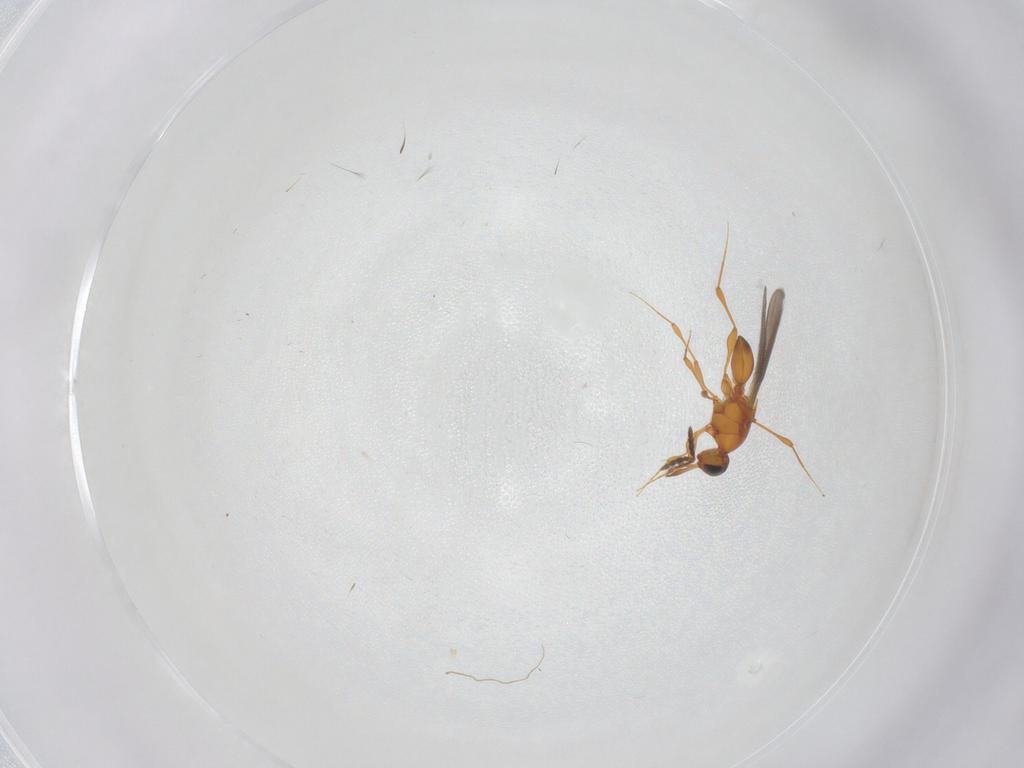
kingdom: Animalia
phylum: Arthropoda
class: Insecta
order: Hymenoptera
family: Platygastridae
